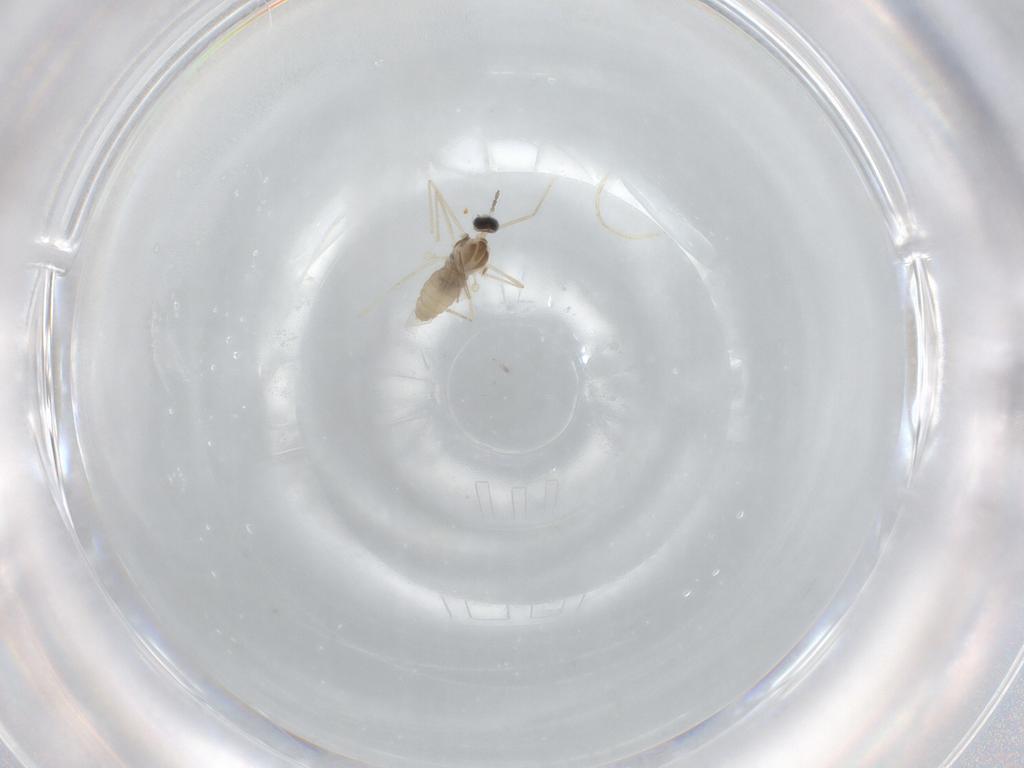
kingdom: Animalia
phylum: Arthropoda
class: Insecta
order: Diptera
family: Cecidomyiidae
